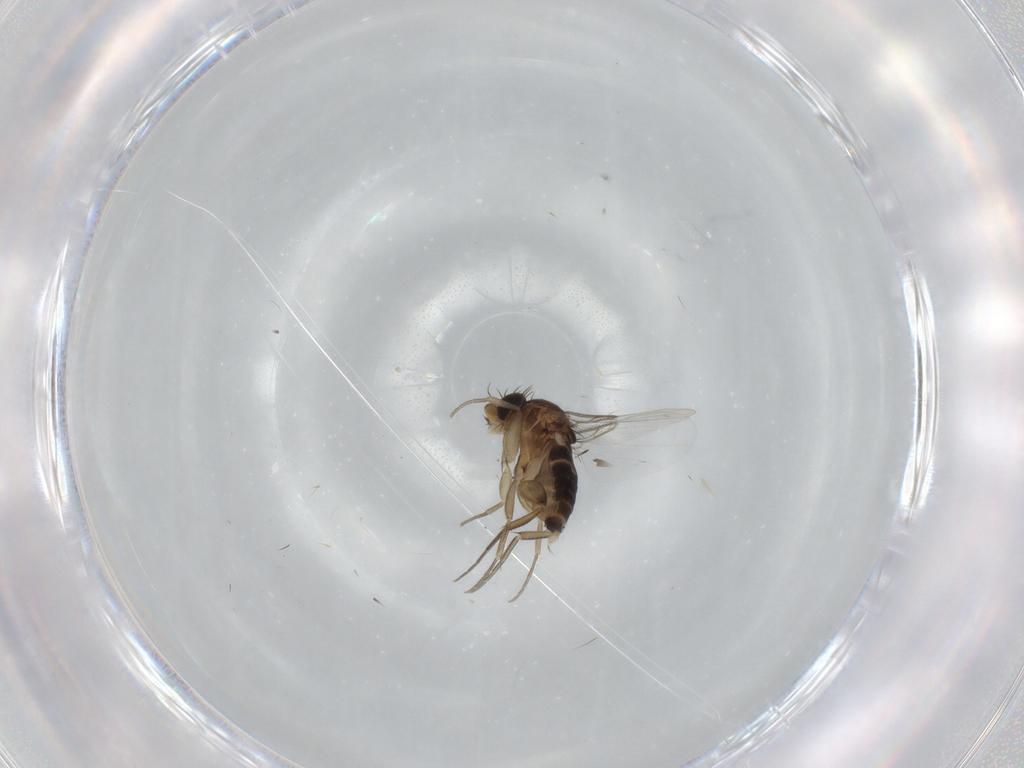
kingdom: Animalia
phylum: Arthropoda
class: Insecta
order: Diptera
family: Phoridae
